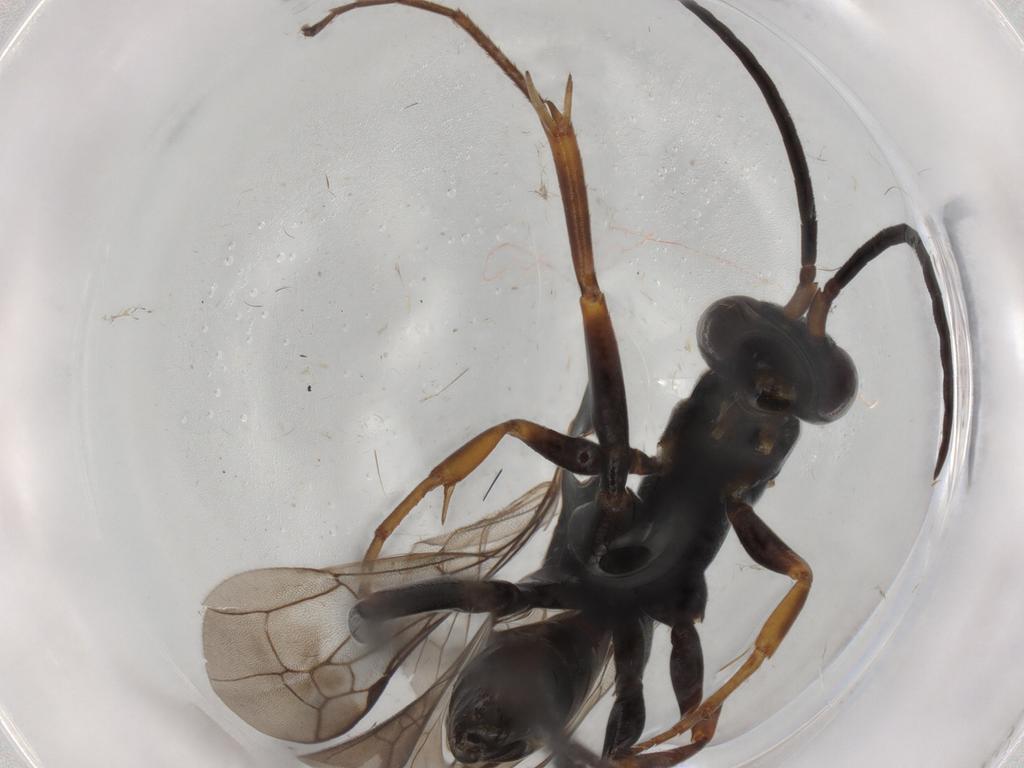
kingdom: Animalia
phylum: Arthropoda
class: Insecta
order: Hymenoptera
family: Pompilidae
